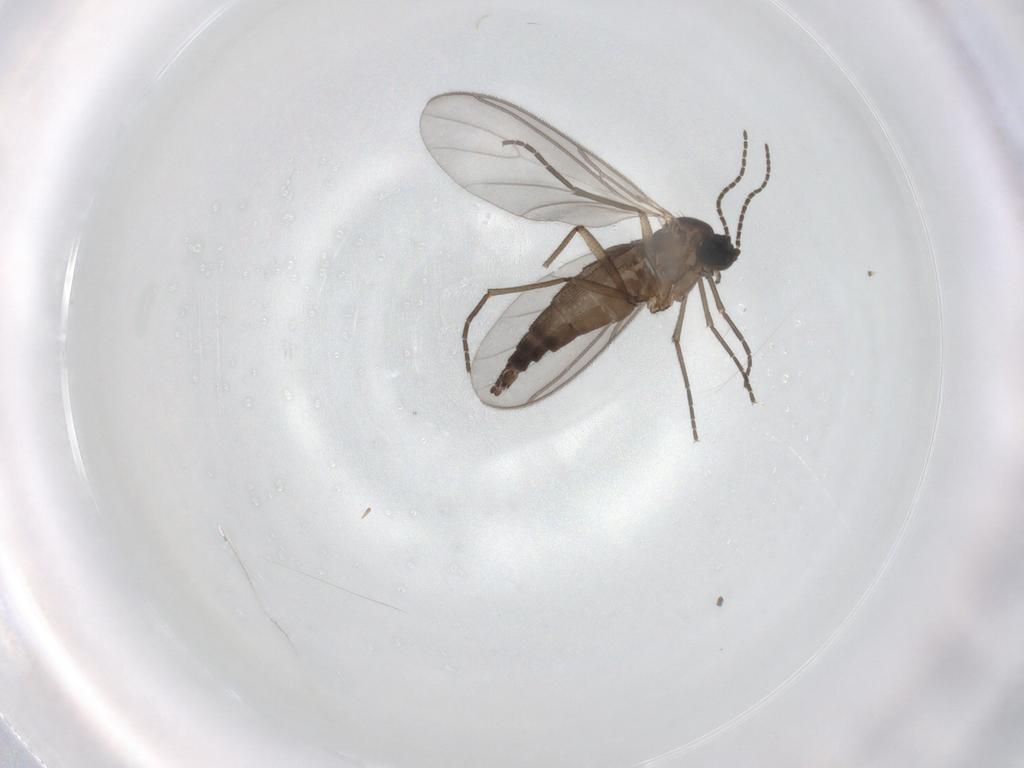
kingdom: Animalia
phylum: Arthropoda
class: Insecta
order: Diptera
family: Sciaridae
